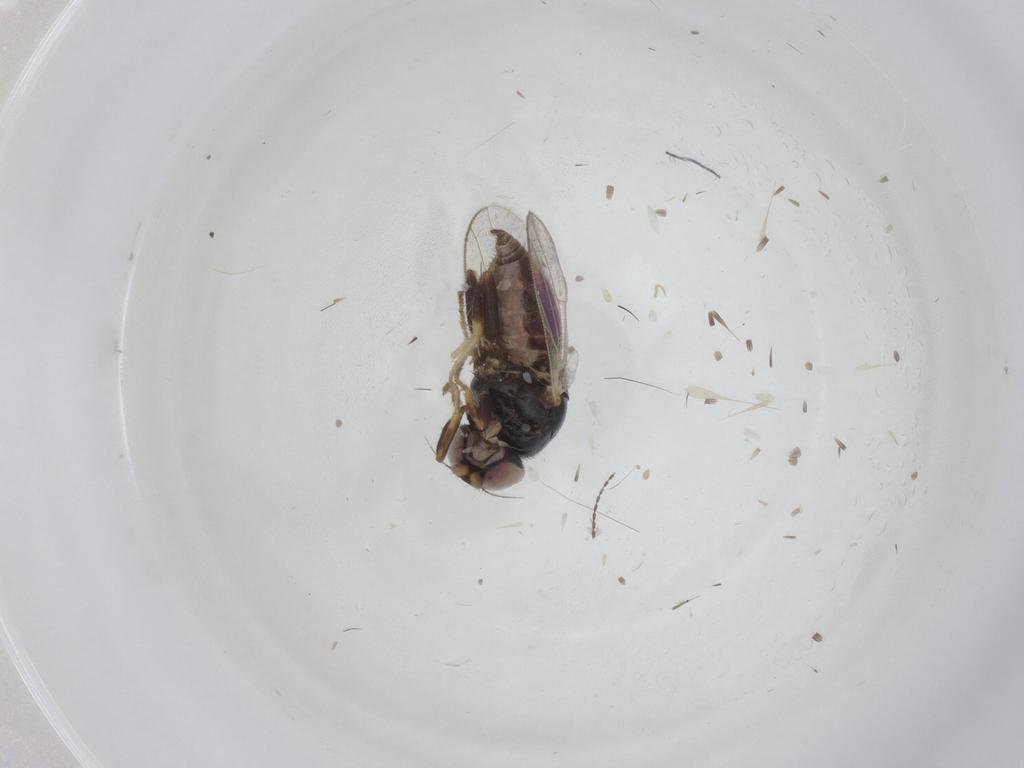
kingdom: Animalia
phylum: Arthropoda
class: Insecta
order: Diptera
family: Chloropidae
